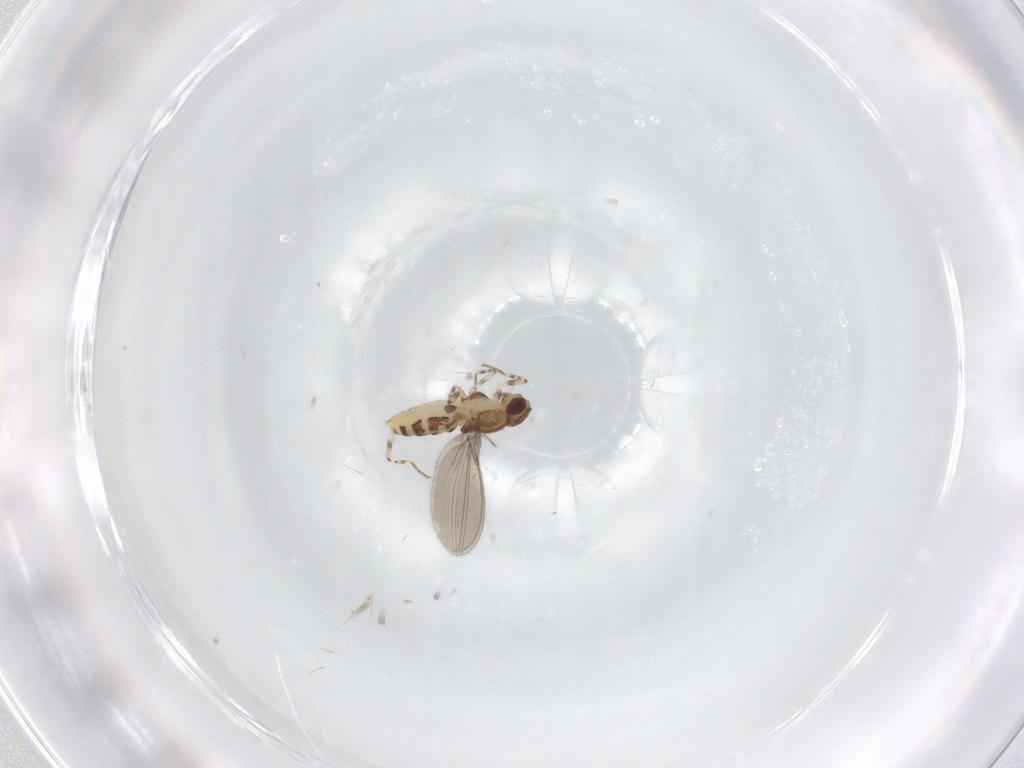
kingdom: Animalia
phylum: Arthropoda
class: Insecta
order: Diptera
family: Asteiidae
